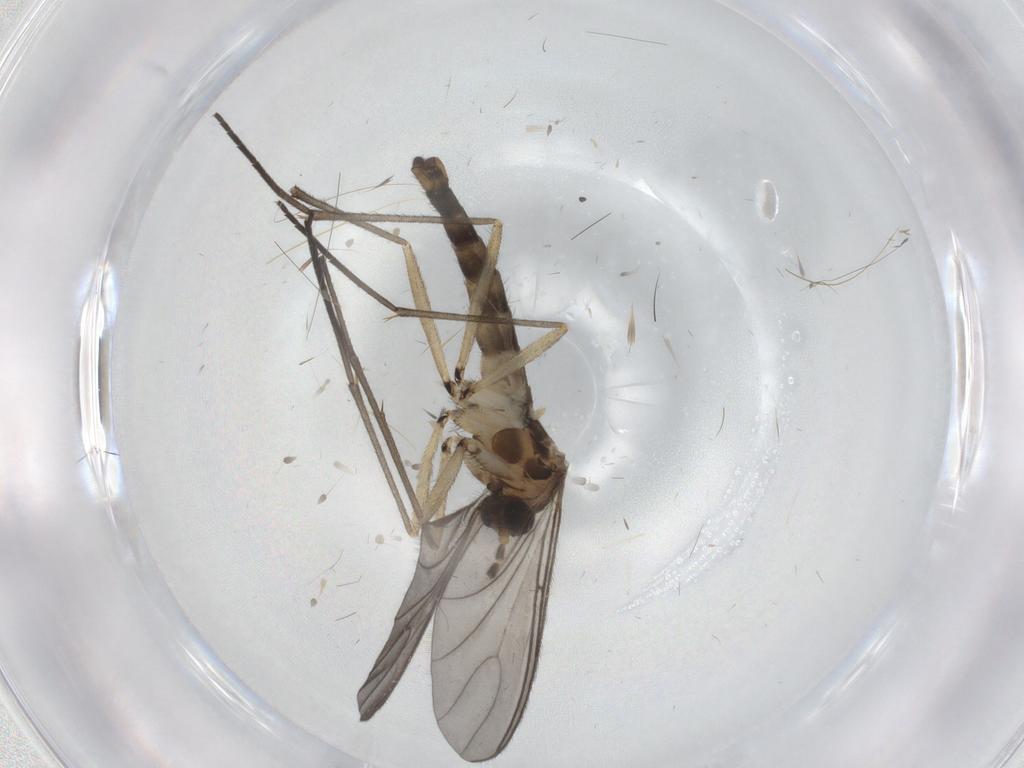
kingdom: Animalia
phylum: Arthropoda
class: Insecta
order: Diptera
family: Sciaridae
